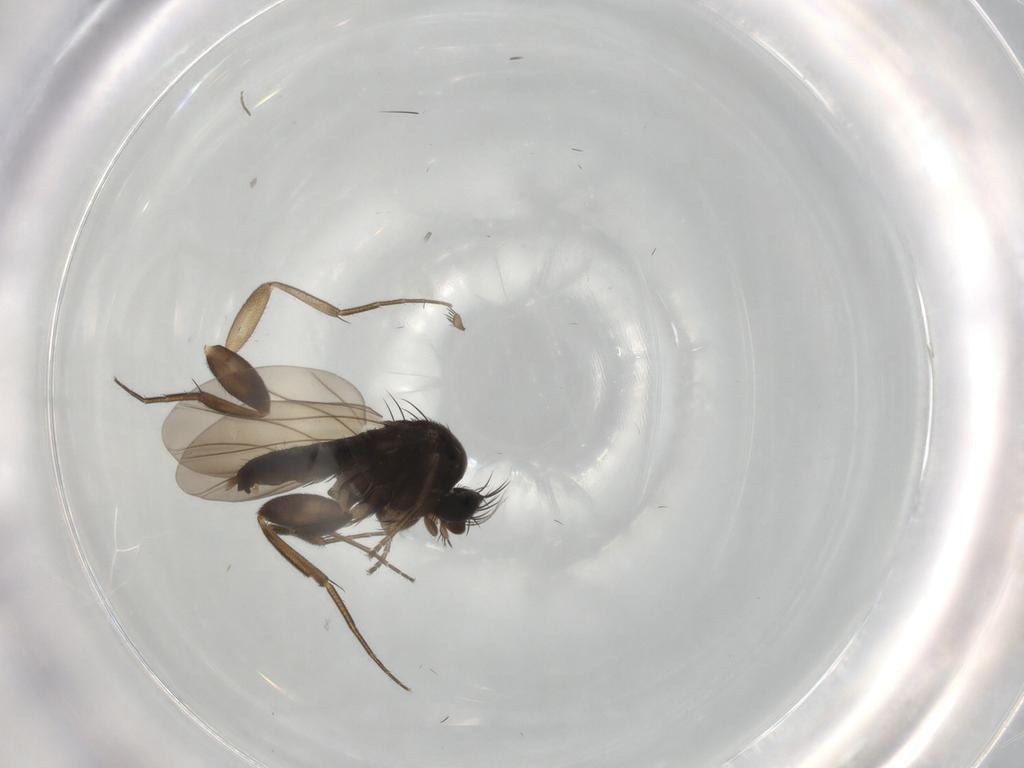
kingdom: Animalia
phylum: Arthropoda
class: Insecta
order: Diptera
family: Phoridae
